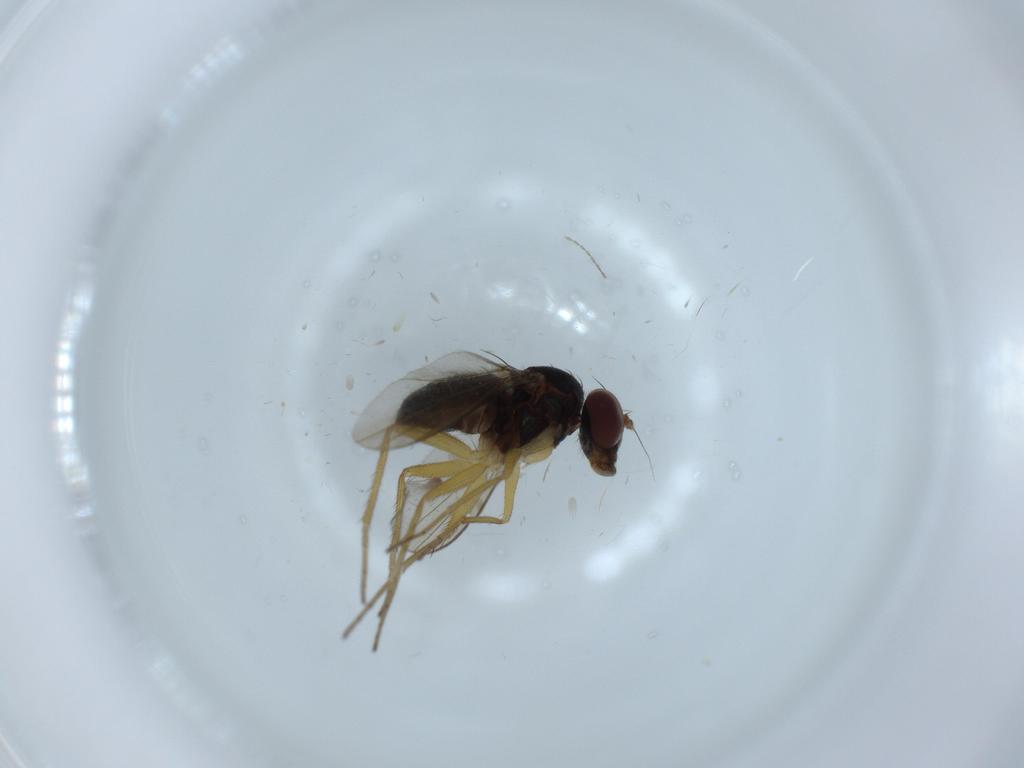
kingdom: Animalia
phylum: Arthropoda
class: Insecta
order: Diptera
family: Dolichopodidae
